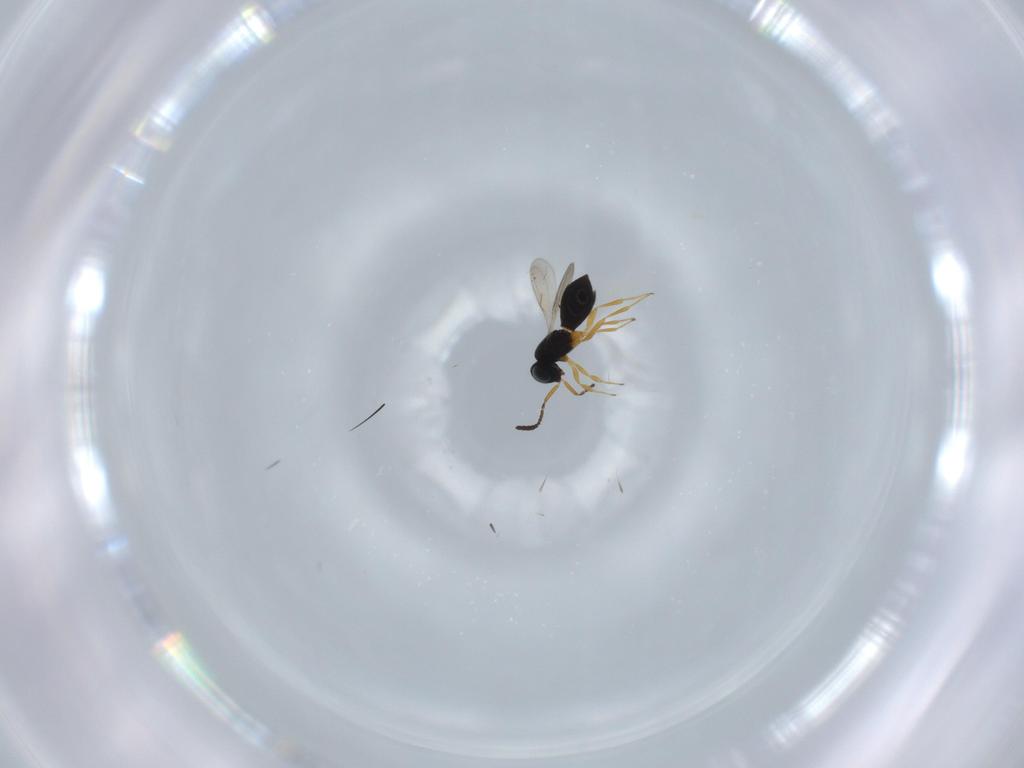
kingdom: Animalia
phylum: Arthropoda
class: Insecta
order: Hymenoptera
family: Scelionidae
